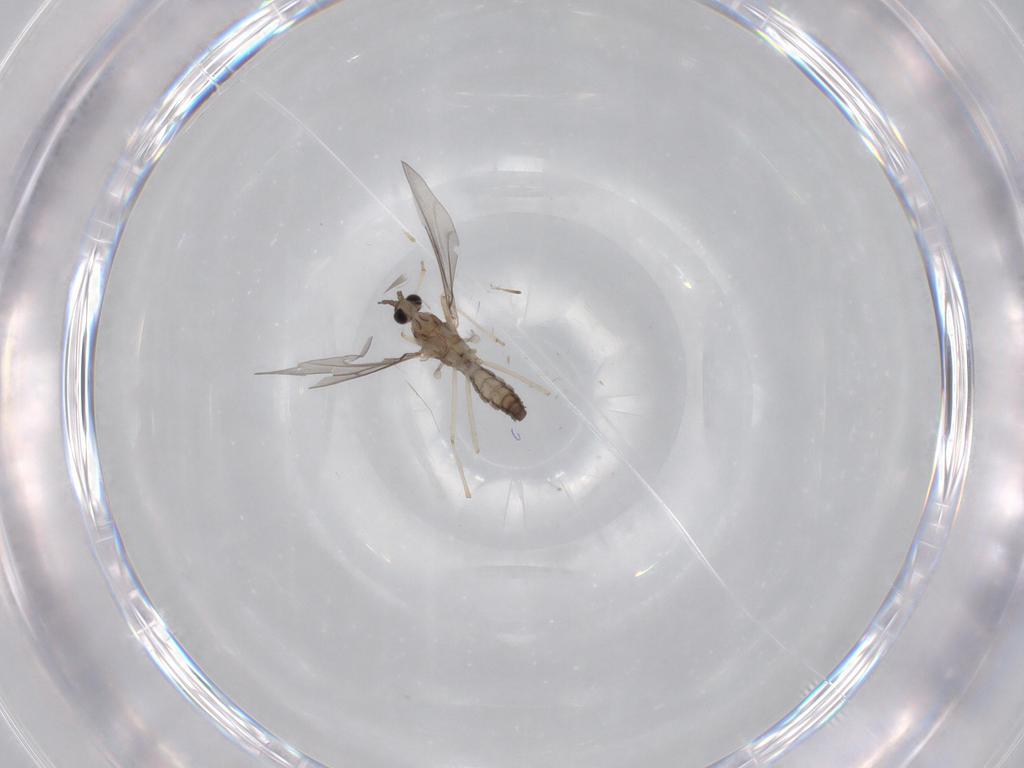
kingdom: Animalia
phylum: Arthropoda
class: Insecta
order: Diptera
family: Cecidomyiidae
